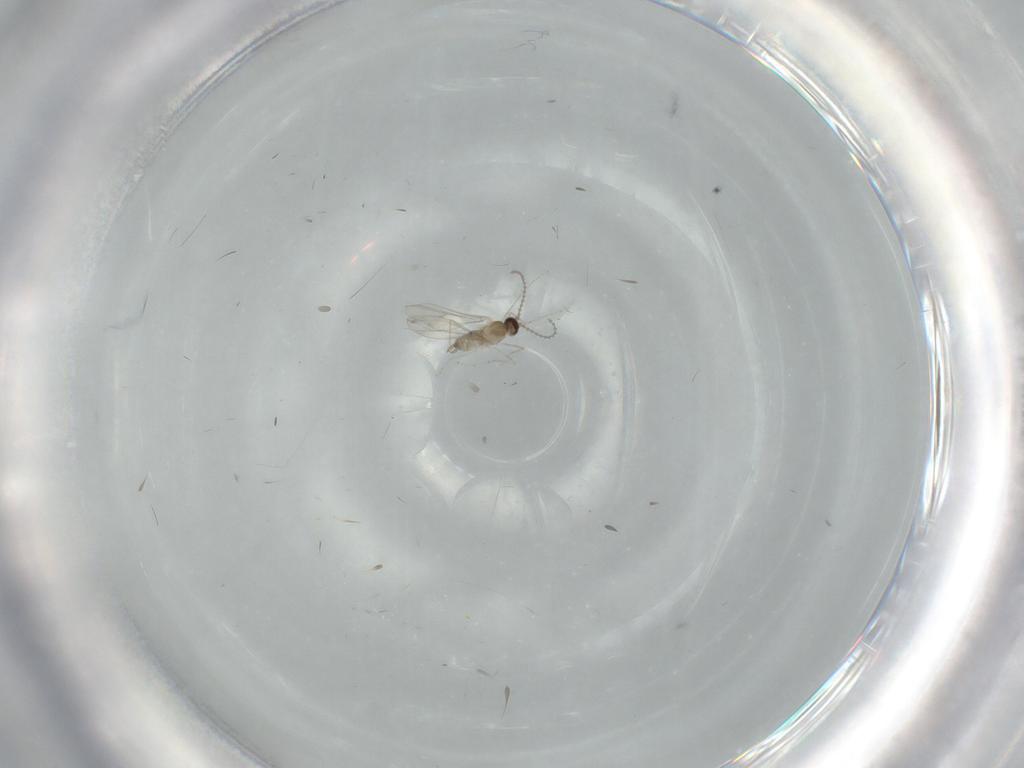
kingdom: Animalia
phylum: Arthropoda
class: Insecta
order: Diptera
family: Cecidomyiidae
